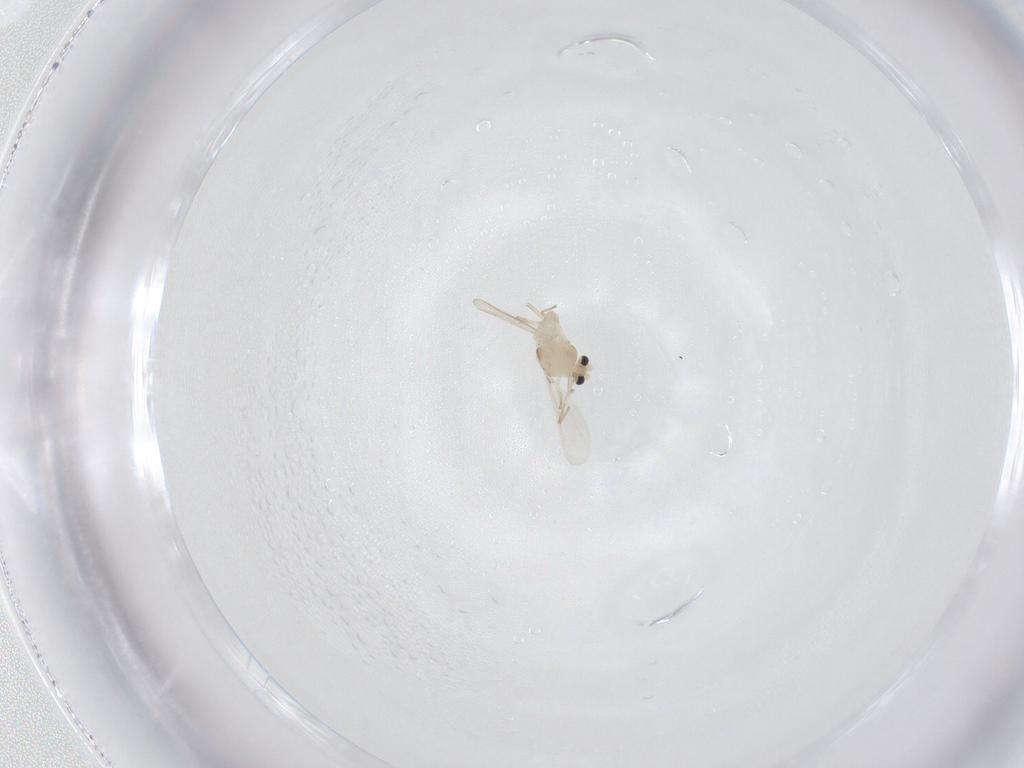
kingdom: Animalia
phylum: Arthropoda
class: Insecta
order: Diptera
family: Chironomidae
